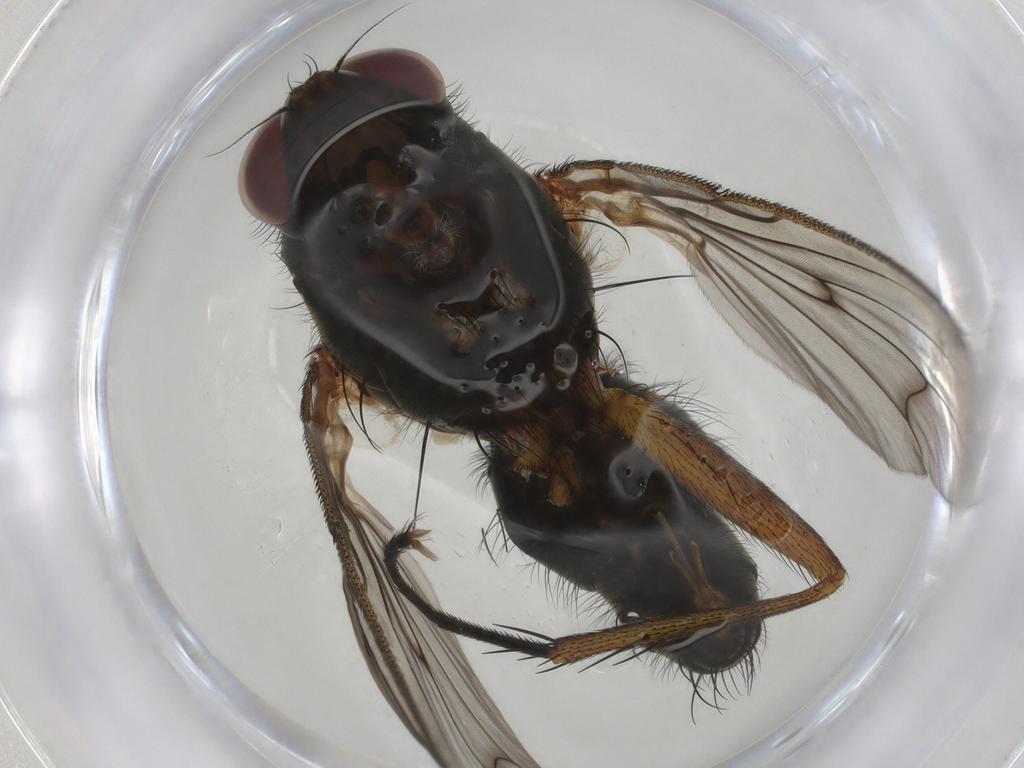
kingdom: Animalia
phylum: Arthropoda
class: Insecta
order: Diptera
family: Anthomyiidae
